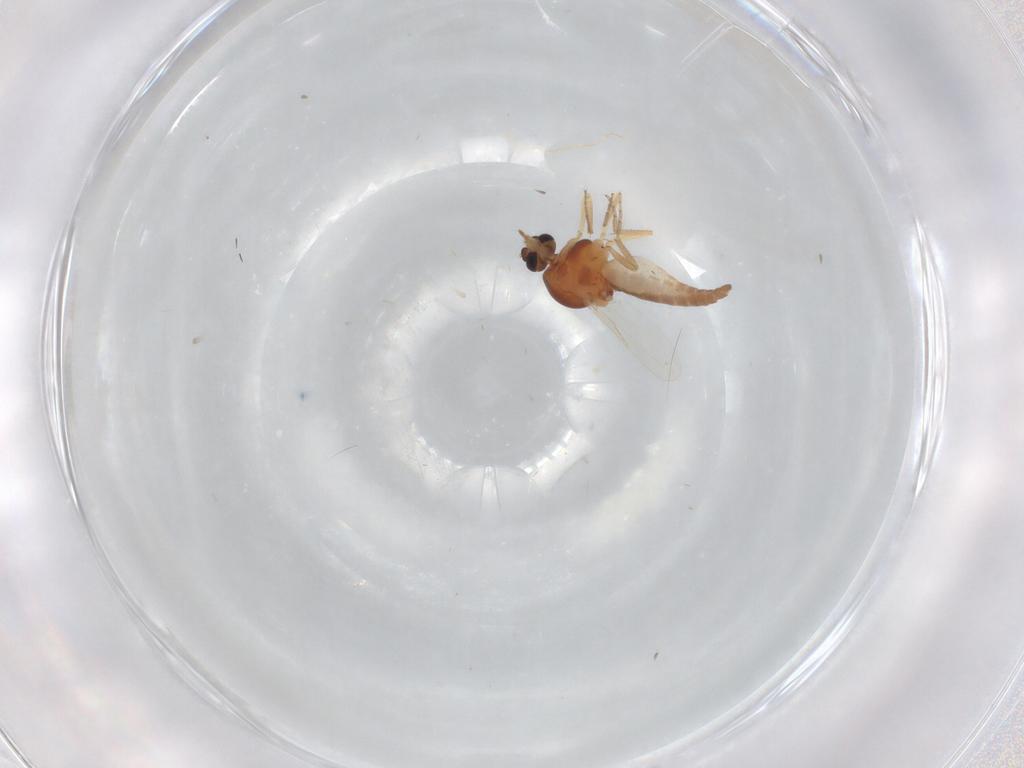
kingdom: Animalia
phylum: Arthropoda
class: Insecta
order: Diptera
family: Ceratopogonidae
